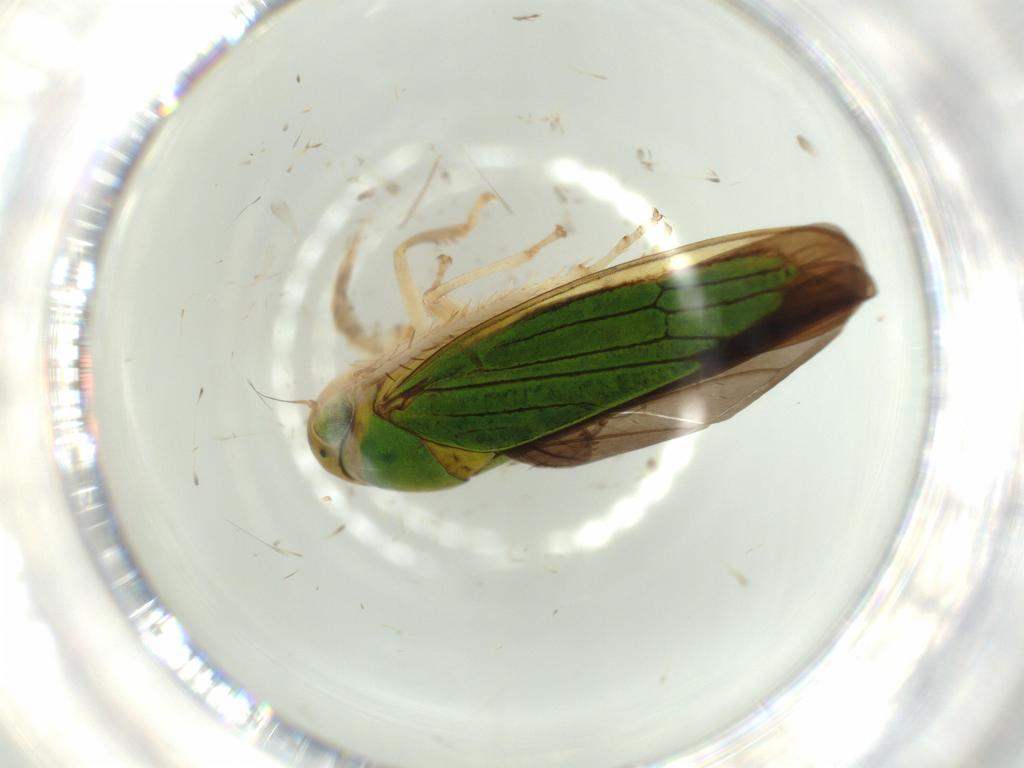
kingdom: Animalia
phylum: Arthropoda
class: Insecta
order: Hemiptera
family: Cicadellidae
